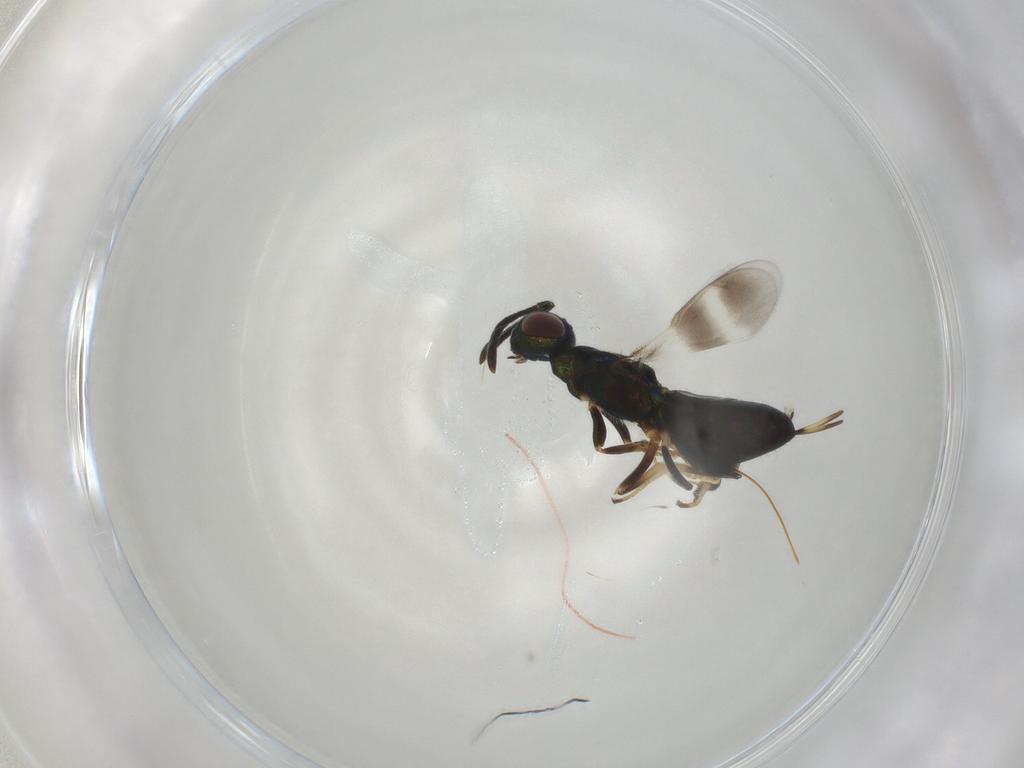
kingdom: Animalia
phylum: Arthropoda
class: Insecta
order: Hymenoptera
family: Eupelmidae
